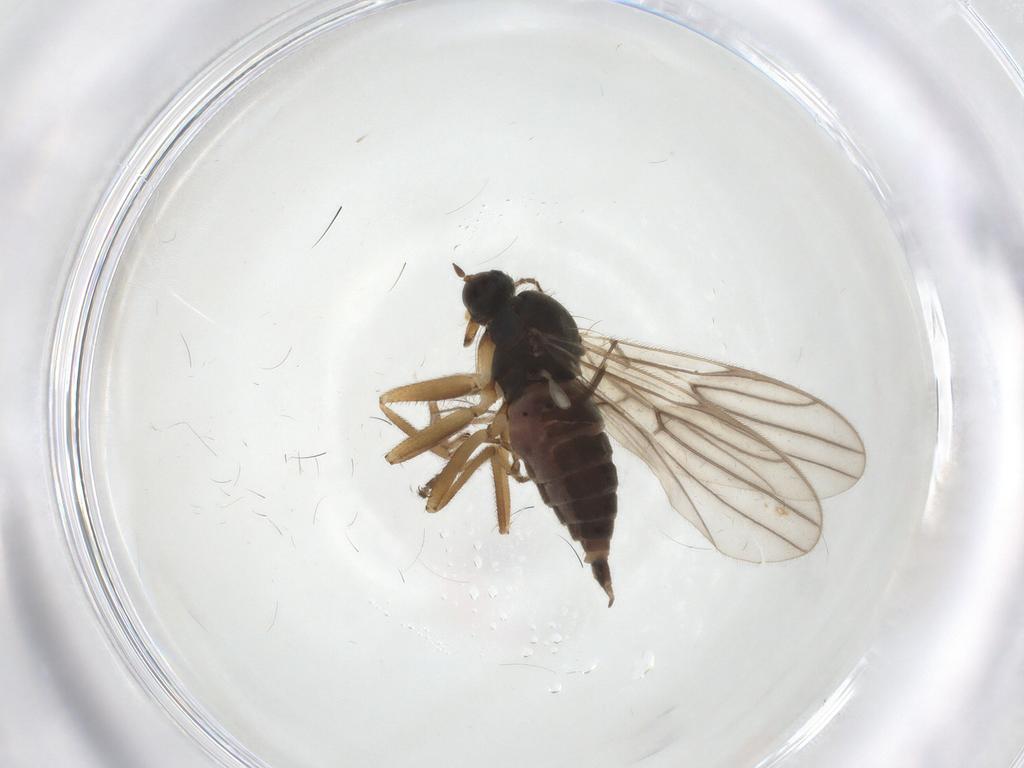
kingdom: Animalia
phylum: Arthropoda
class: Insecta
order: Diptera
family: Hybotidae
